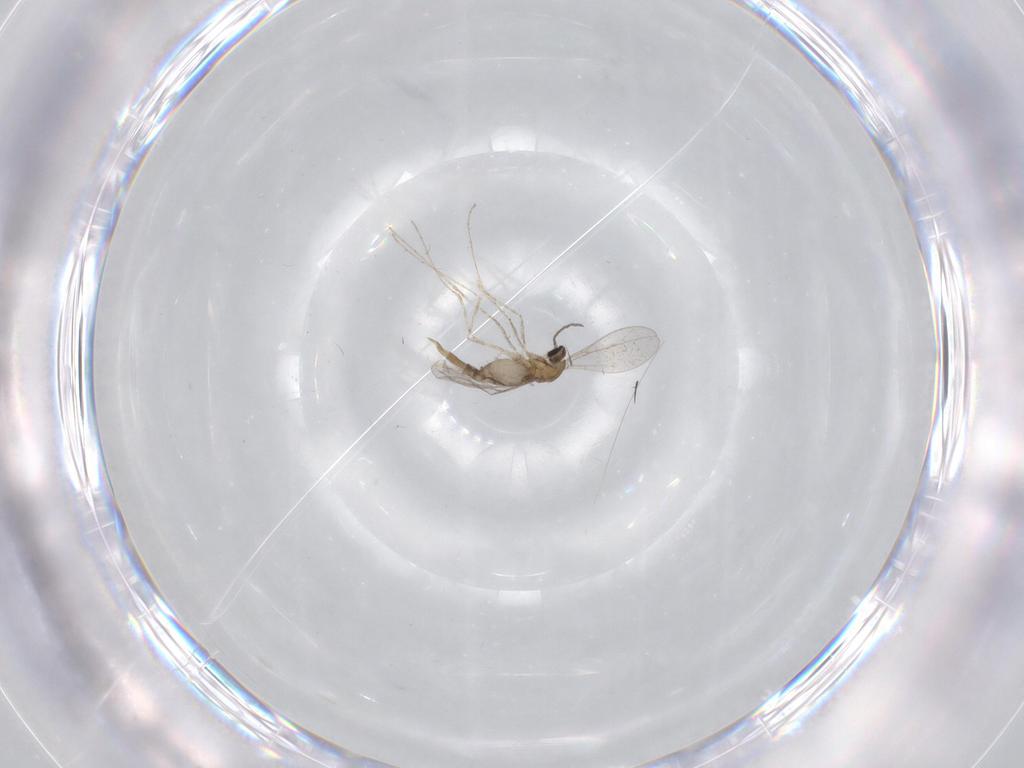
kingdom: Animalia
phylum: Arthropoda
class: Insecta
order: Diptera
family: Cecidomyiidae
